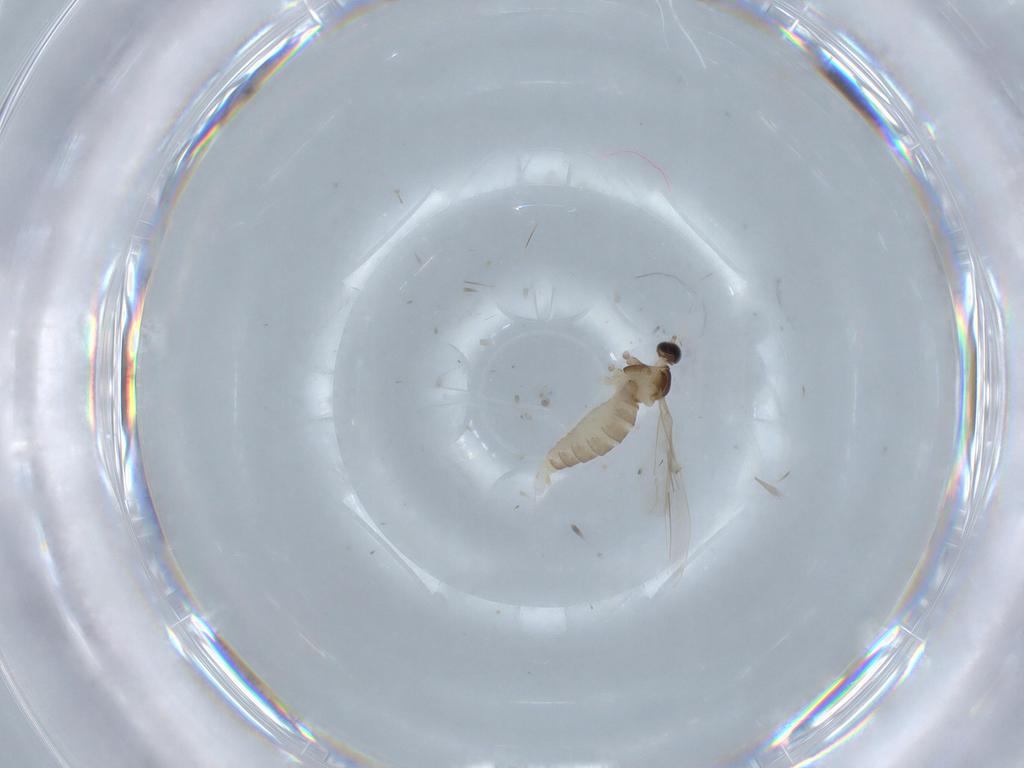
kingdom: Animalia
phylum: Arthropoda
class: Insecta
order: Diptera
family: Cecidomyiidae
